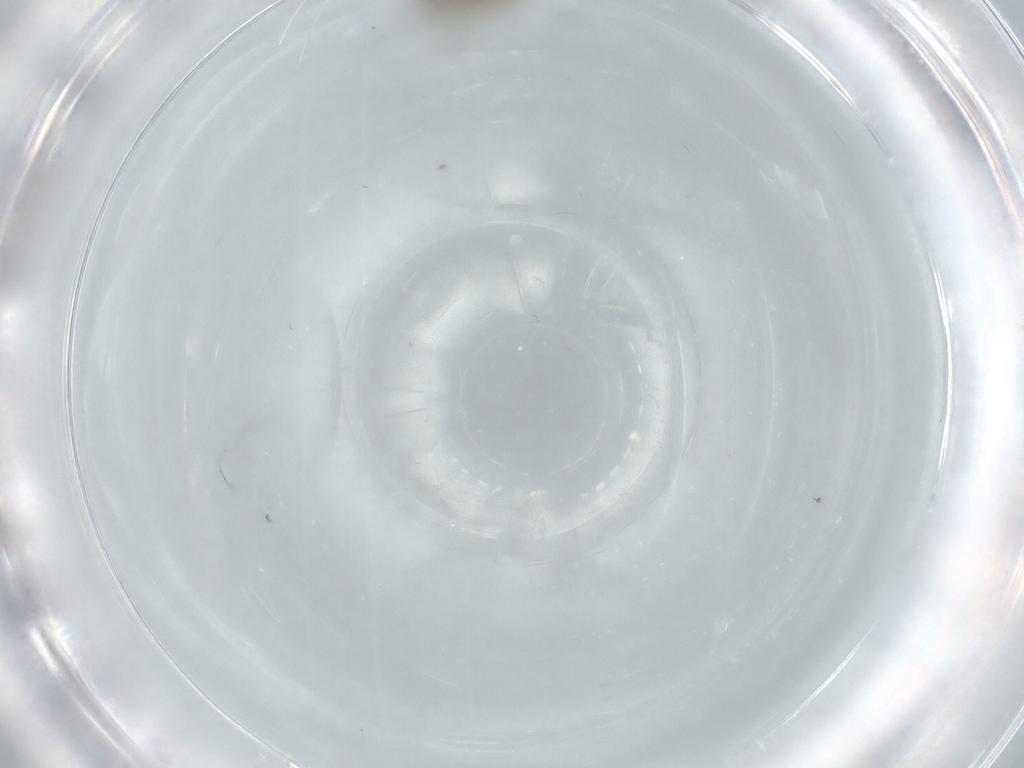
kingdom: Animalia
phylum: Arthropoda
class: Insecta
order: Diptera
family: Chironomidae
